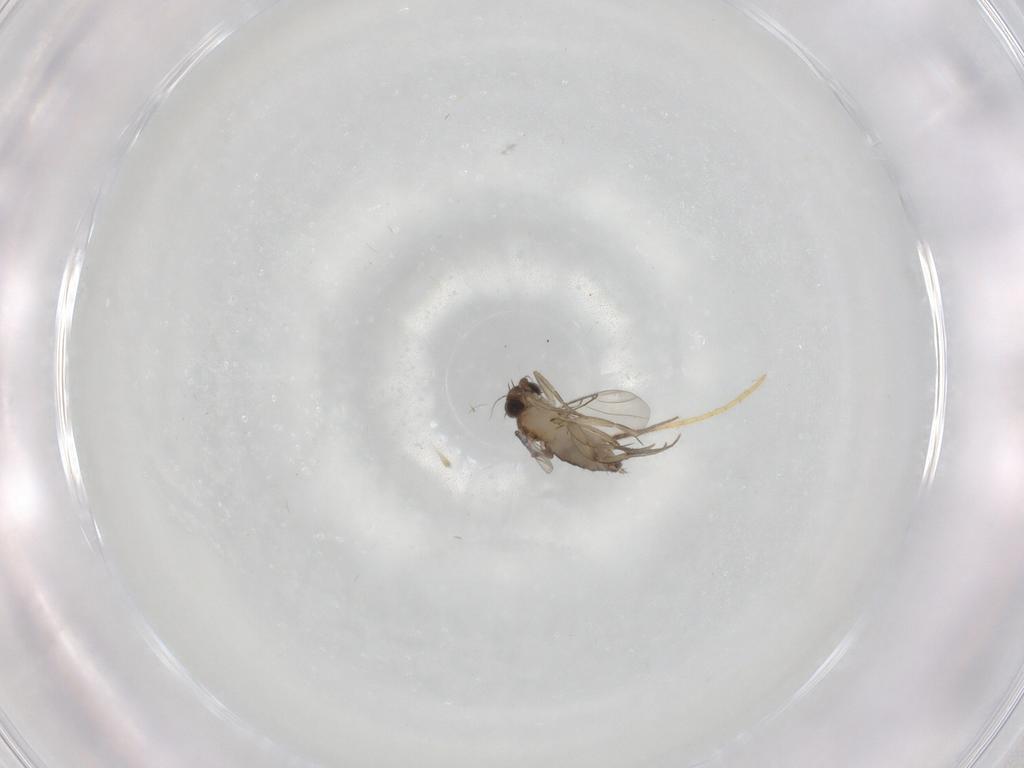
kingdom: Animalia
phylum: Arthropoda
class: Insecta
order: Diptera
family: Phoridae
